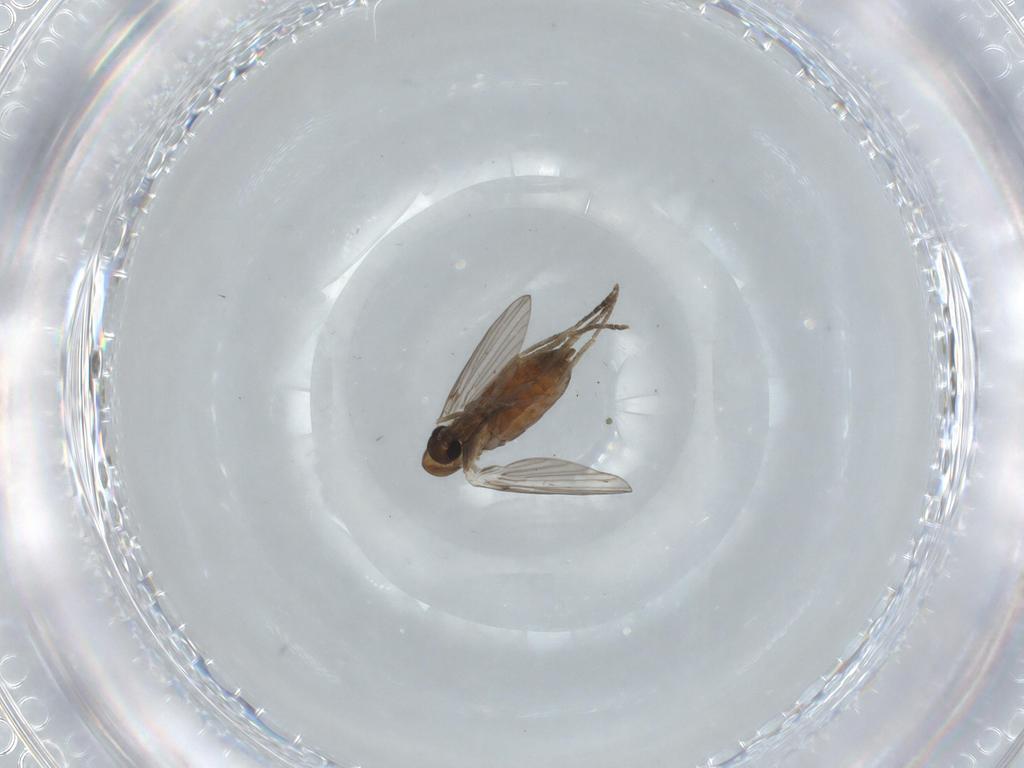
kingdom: Animalia
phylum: Arthropoda
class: Insecta
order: Diptera
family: Psychodidae
